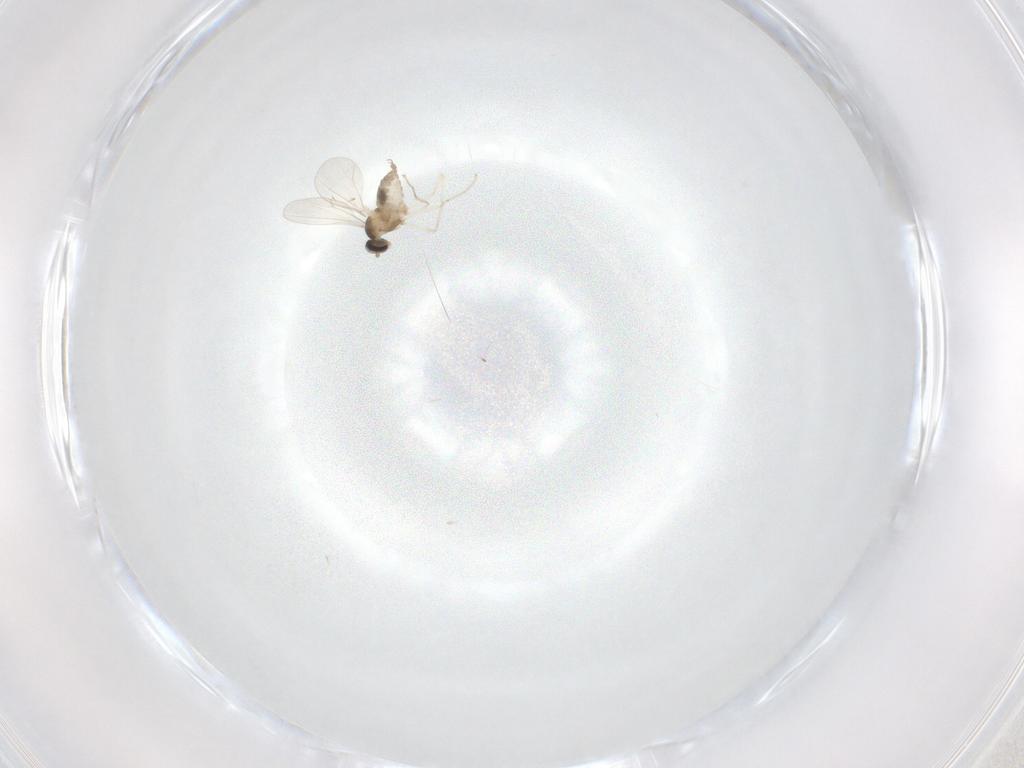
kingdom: Animalia
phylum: Arthropoda
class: Insecta
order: Diptera
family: Cecidomyiidae
